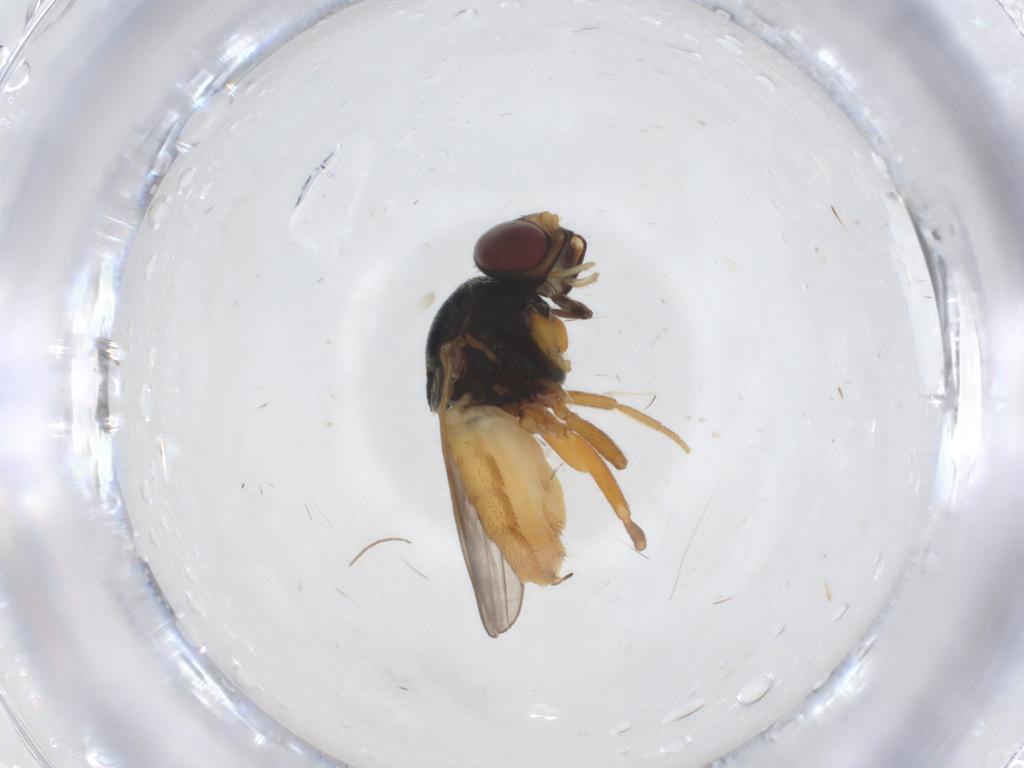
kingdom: Animalia
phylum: Arthropoda
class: Insecta
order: Diptera
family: Chloropidae
